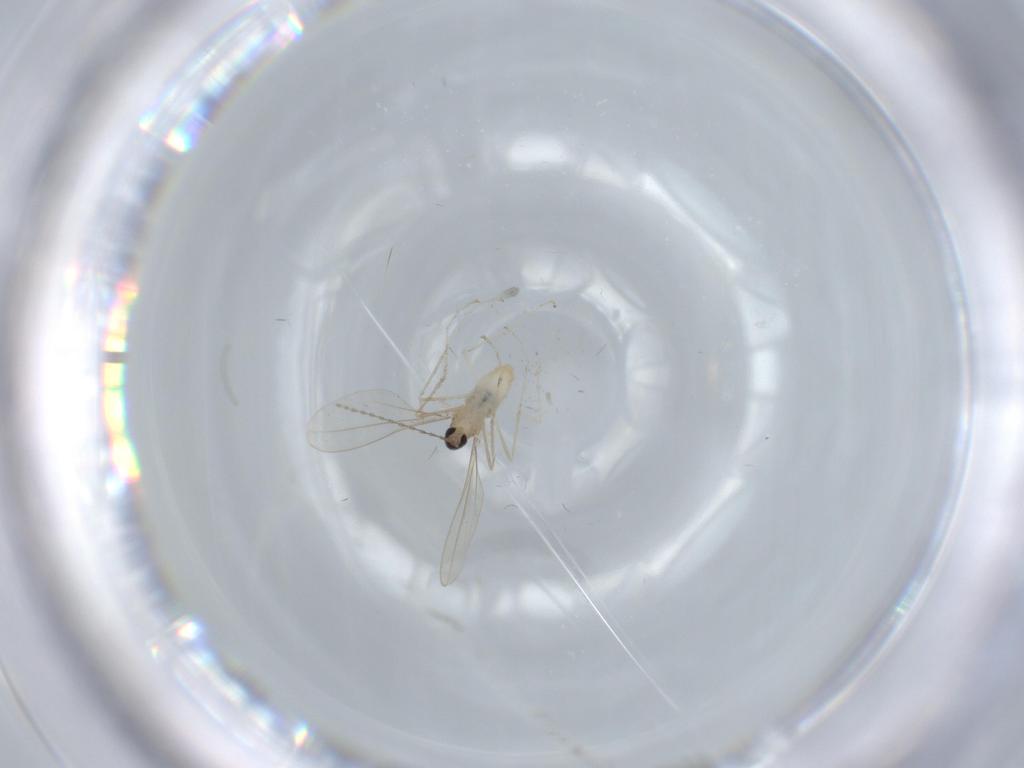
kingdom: Animalia
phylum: Arthropoda
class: Insecta
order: Diptera
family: Cecidomyiidae
